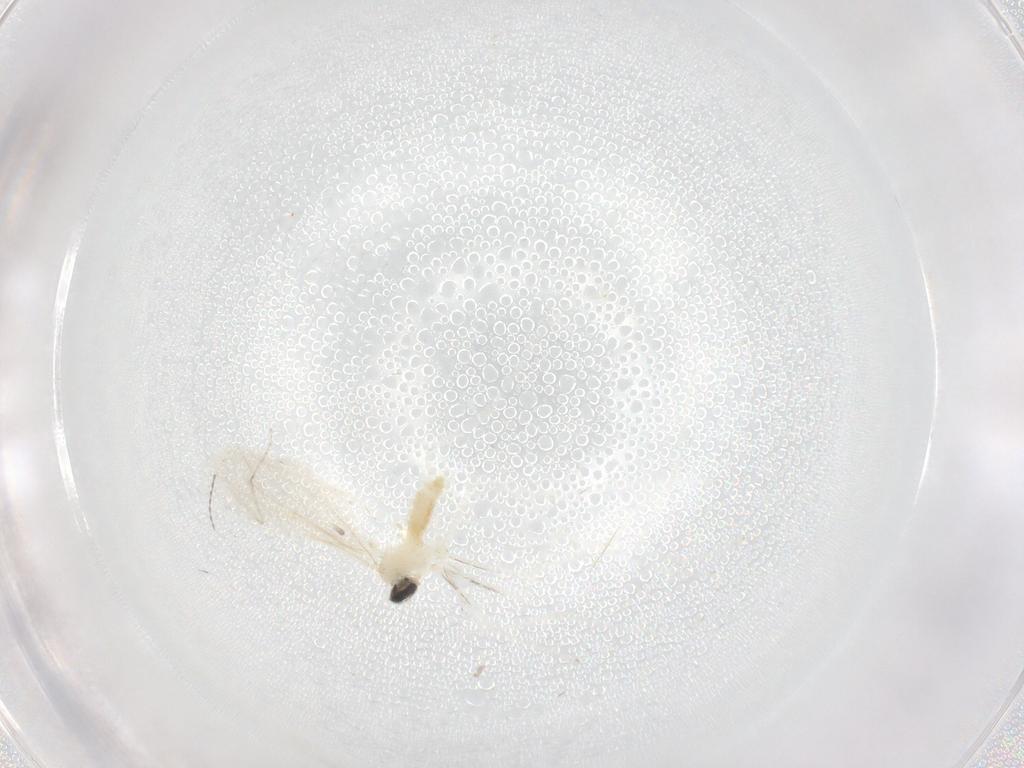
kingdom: Animalia
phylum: Arthropoda
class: Insecta
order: Diptera
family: Cecidomyiidae
